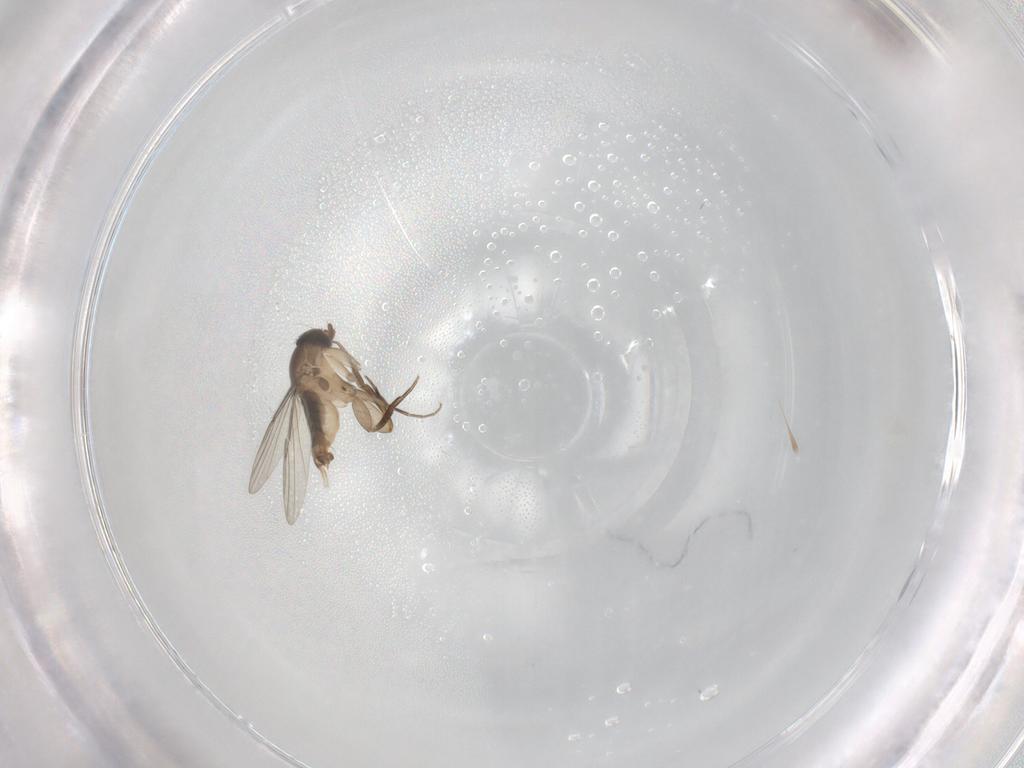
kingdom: Animalia
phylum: Arthropoda
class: Insecta
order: Diptera
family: Phoridae
